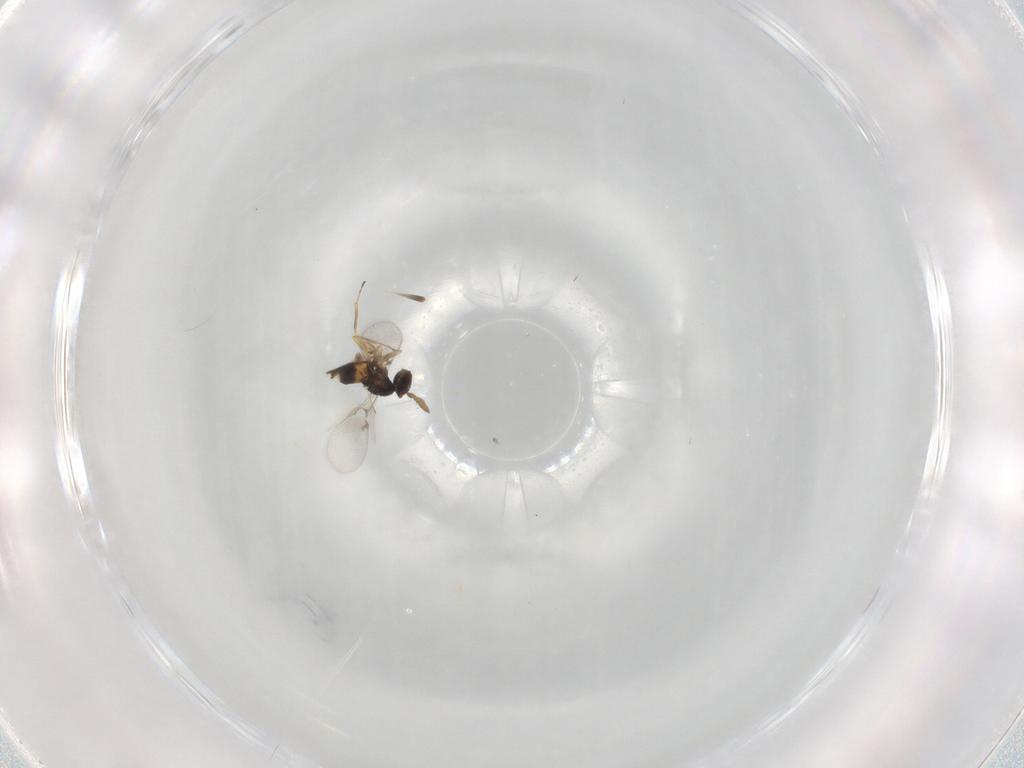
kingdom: Animalia
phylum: Arthropoda
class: Insecta
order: Hymenoptera
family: Eulophidae
